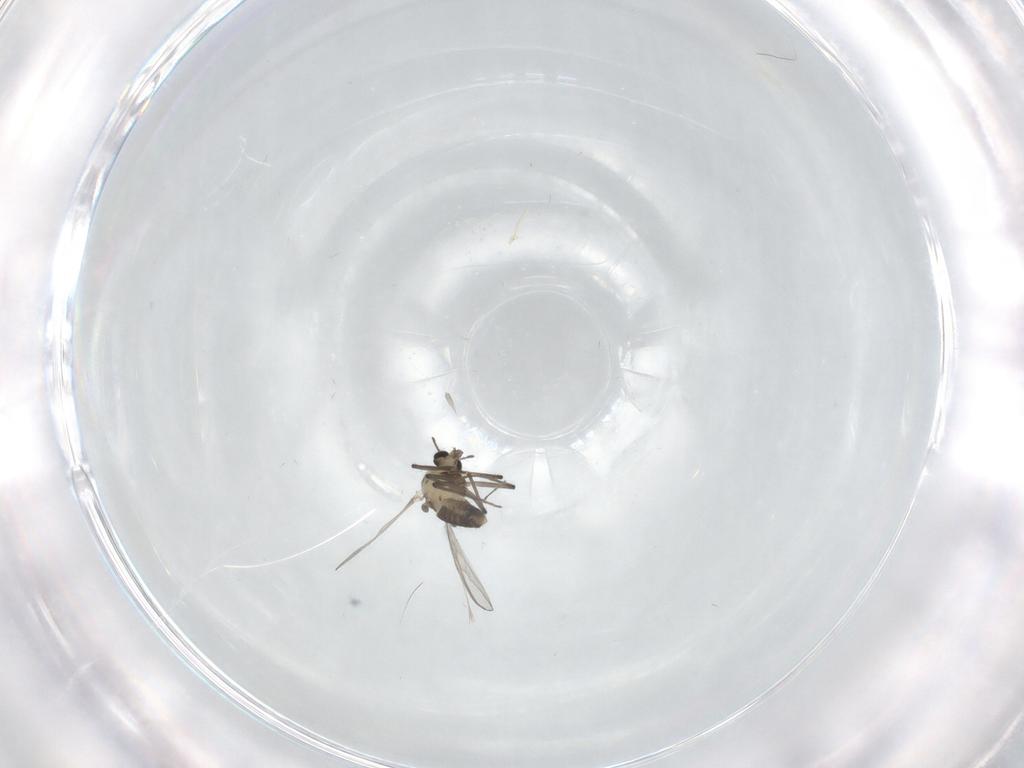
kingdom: Animalia
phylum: Arthropoda
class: Insecta
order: Diptera
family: Chironomidae
